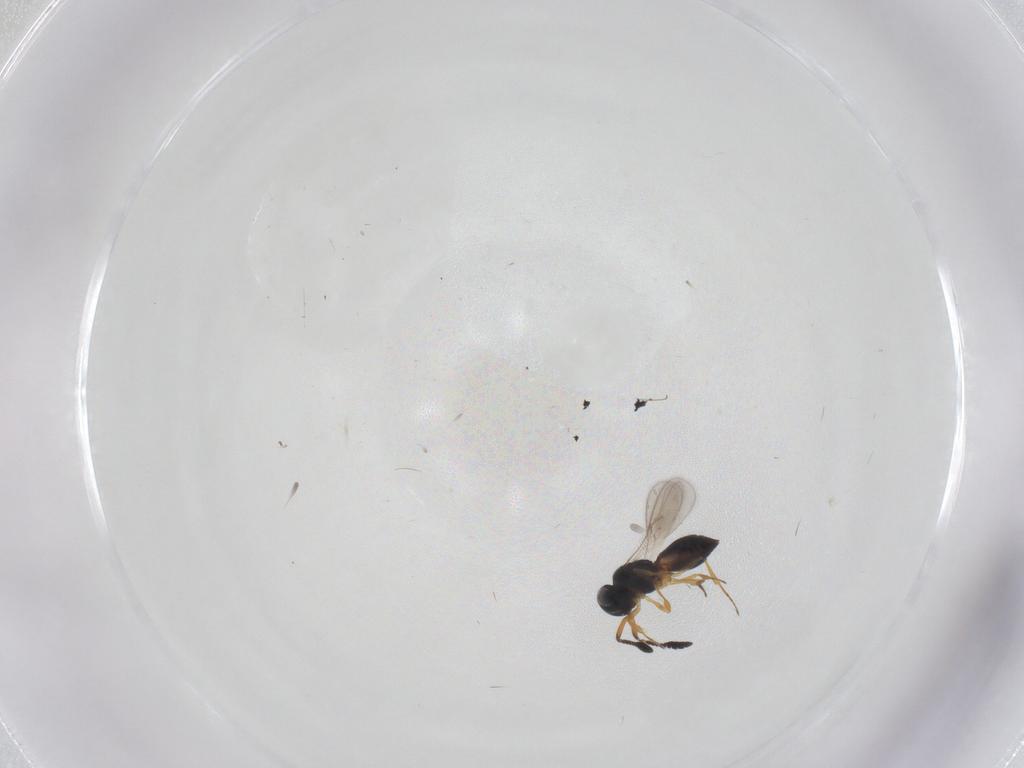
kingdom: Animalia
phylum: Arthropoda
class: Insecta
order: Hymenoptera
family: Scelionidae
